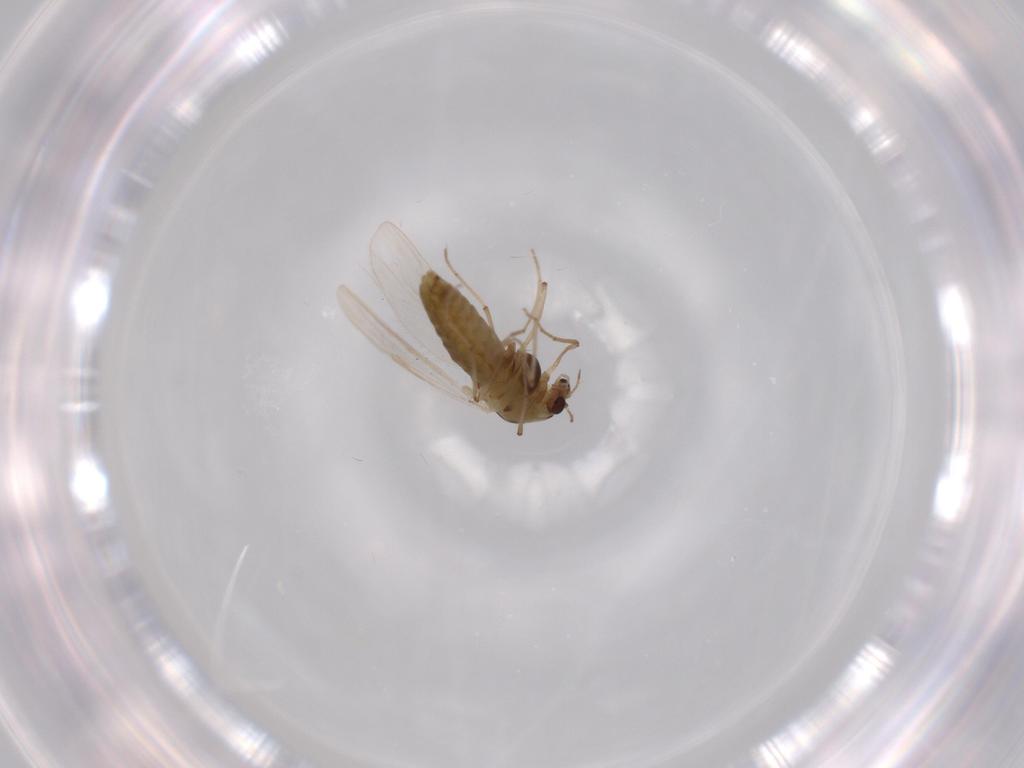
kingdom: Animalia
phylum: Arthropoda
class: Insecta
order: Diptera
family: Chironomidae
